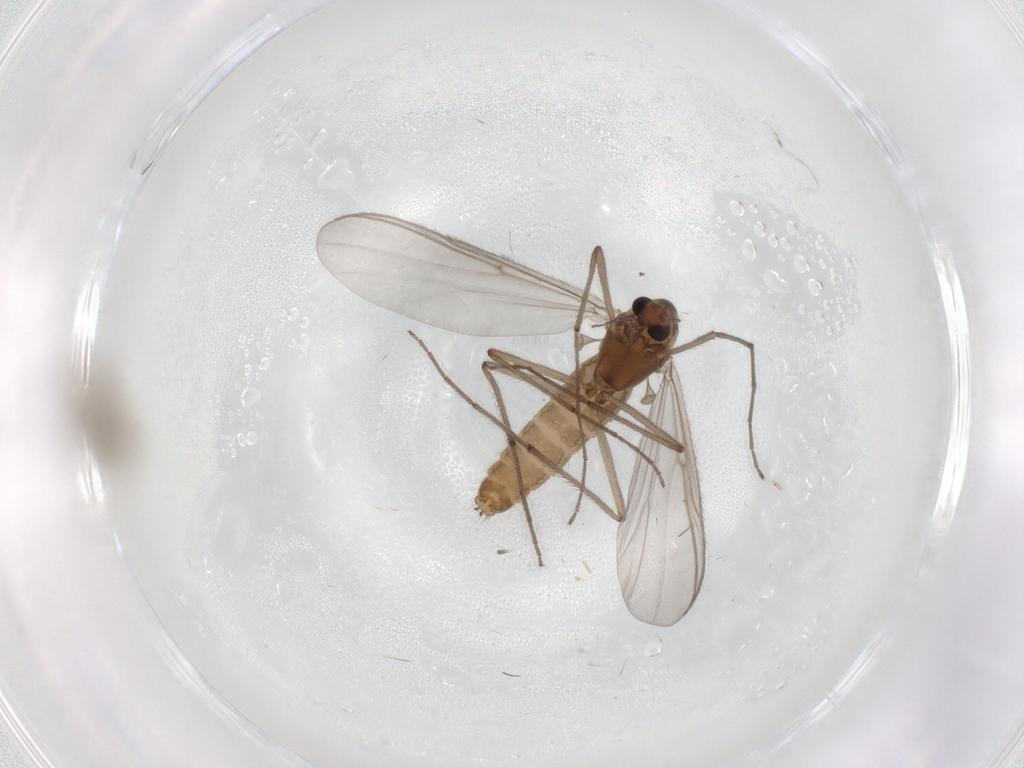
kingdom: Animalia
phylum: Arthropoda
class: Insecta
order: Diptera
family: Chironomidae
